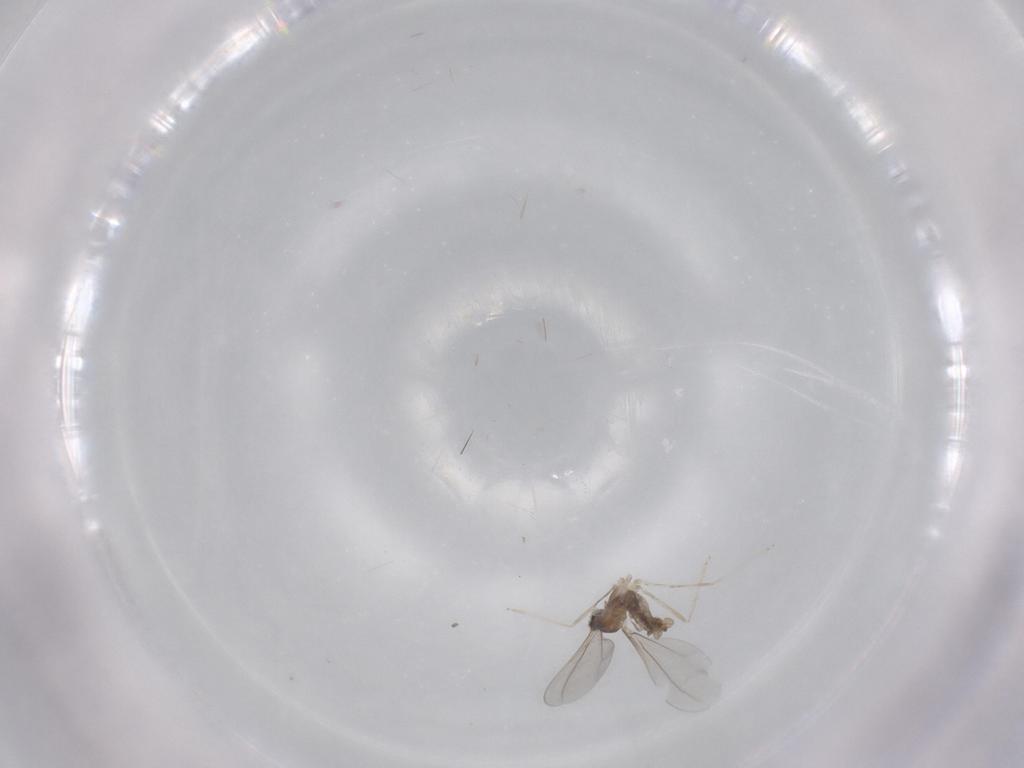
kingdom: Animalia
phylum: Arthropoda
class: Insecta
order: Diptera
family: Cecidomyiidae
